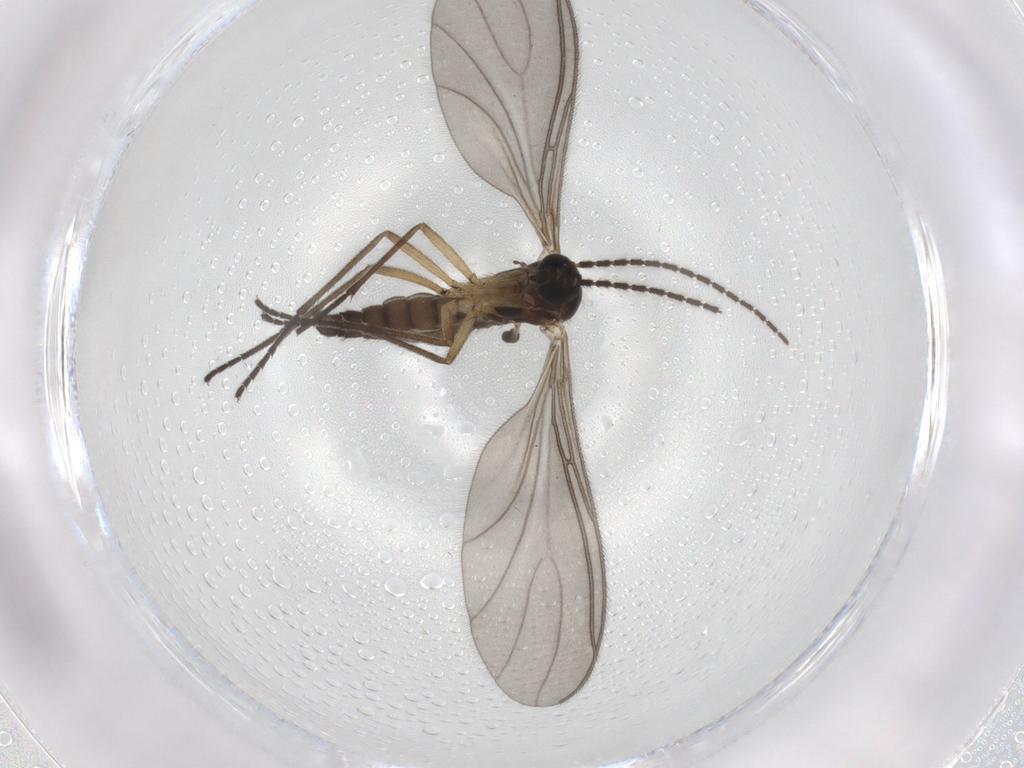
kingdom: Animalia
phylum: Arthropoda
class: Insecta
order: Diptera
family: Sciaridae
